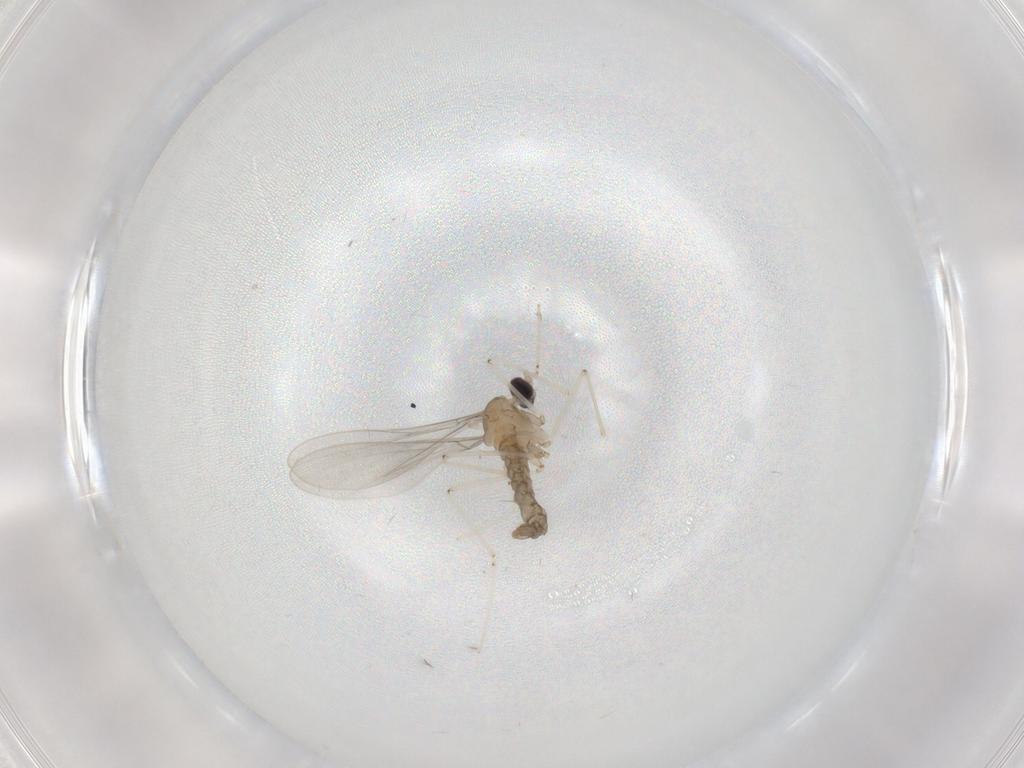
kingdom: Animalia
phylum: Arthropoda
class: Insecta
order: Diptera
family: Cecidomyiidae
